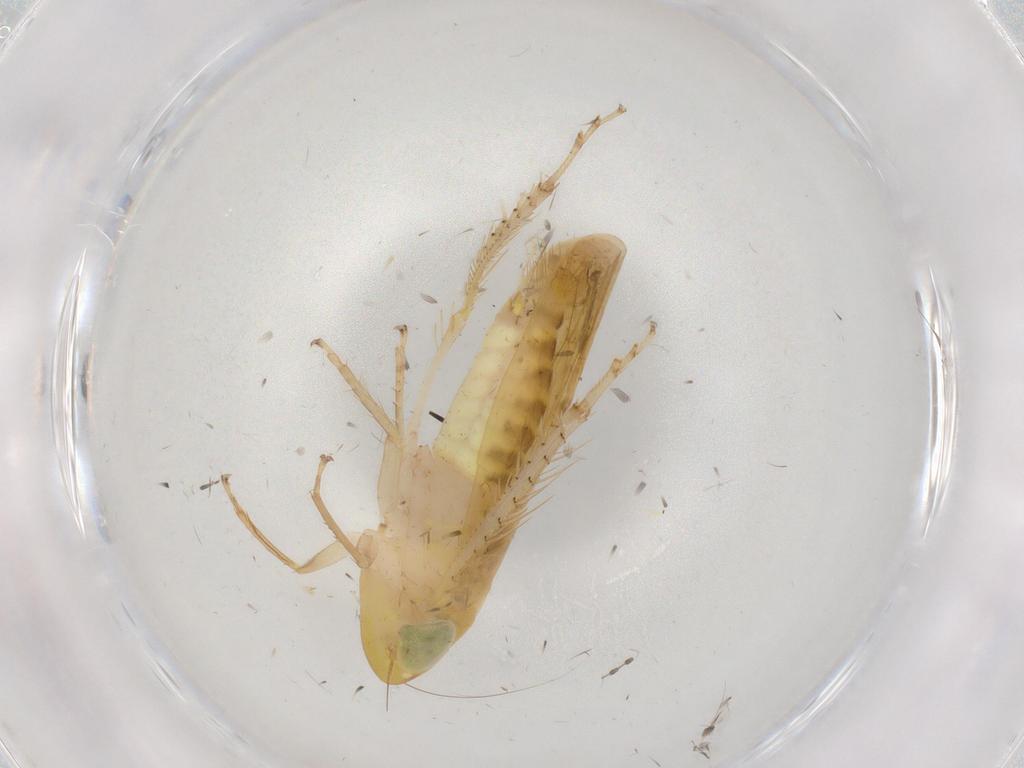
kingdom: Animalia
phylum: Arthropoda
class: Insecta
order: Hemiptera
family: Cicadellidae
